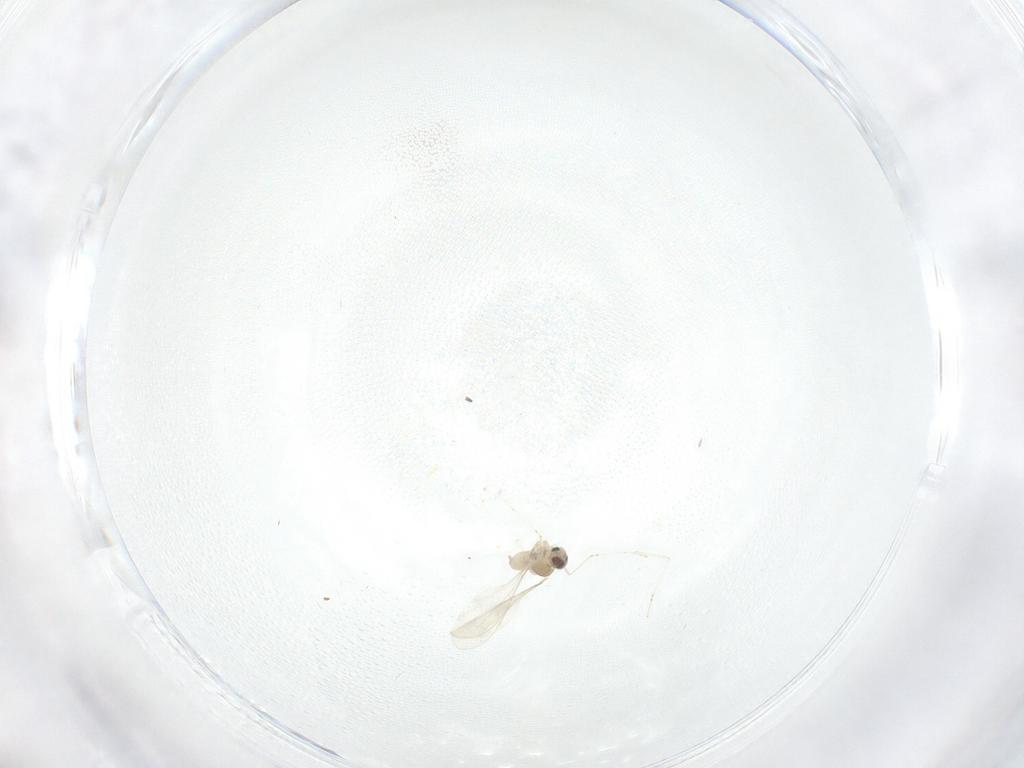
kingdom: Animalia
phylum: Arthropoda
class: Insecta
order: Diptera
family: Cecidomyiidae
